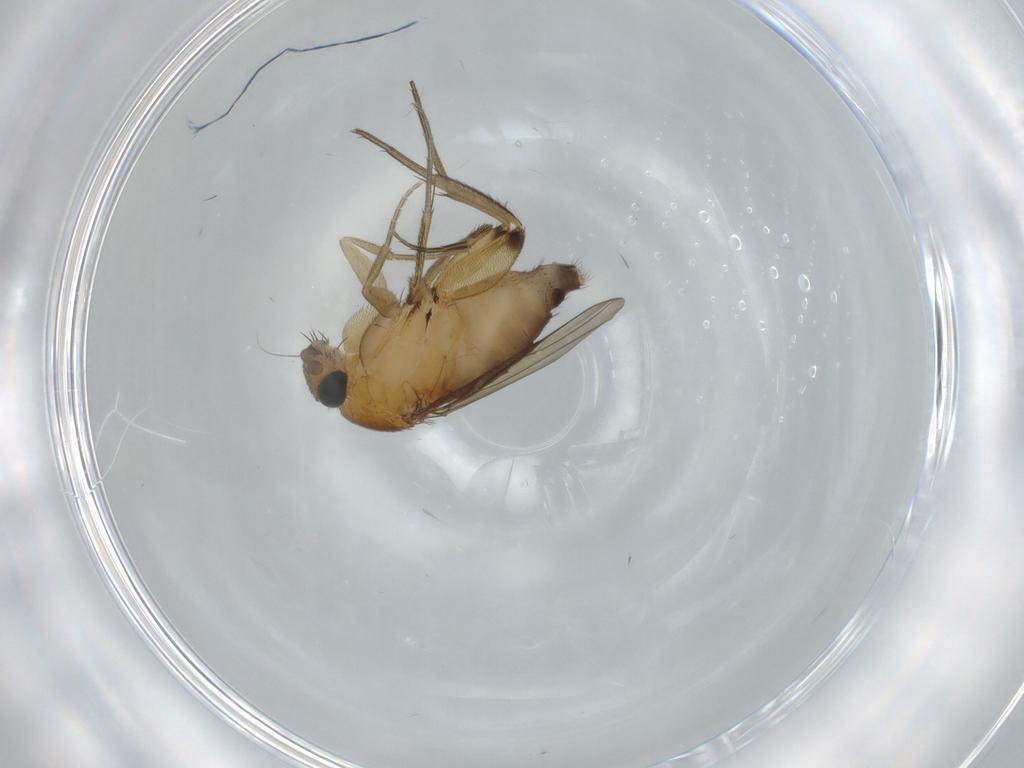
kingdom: Animalia
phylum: Arthropoda
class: Insecta
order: Diptera
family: Phoridae
